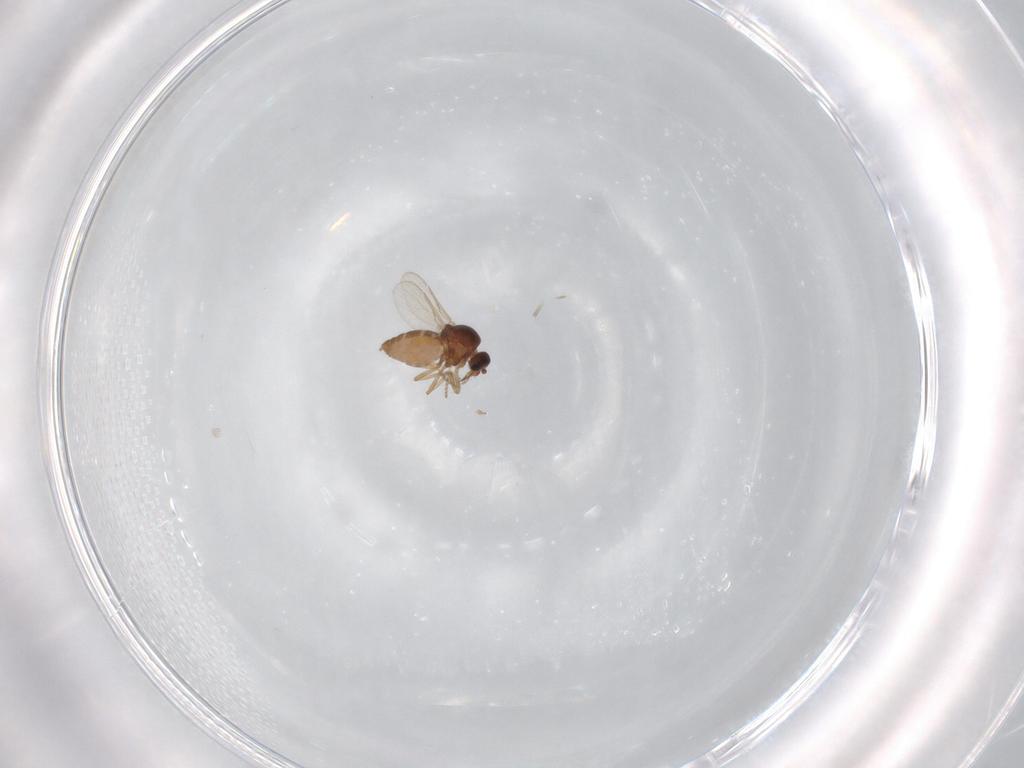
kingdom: Animalia
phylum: Arthropoda
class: Insecta
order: Diptera
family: Ceratopogonidae
